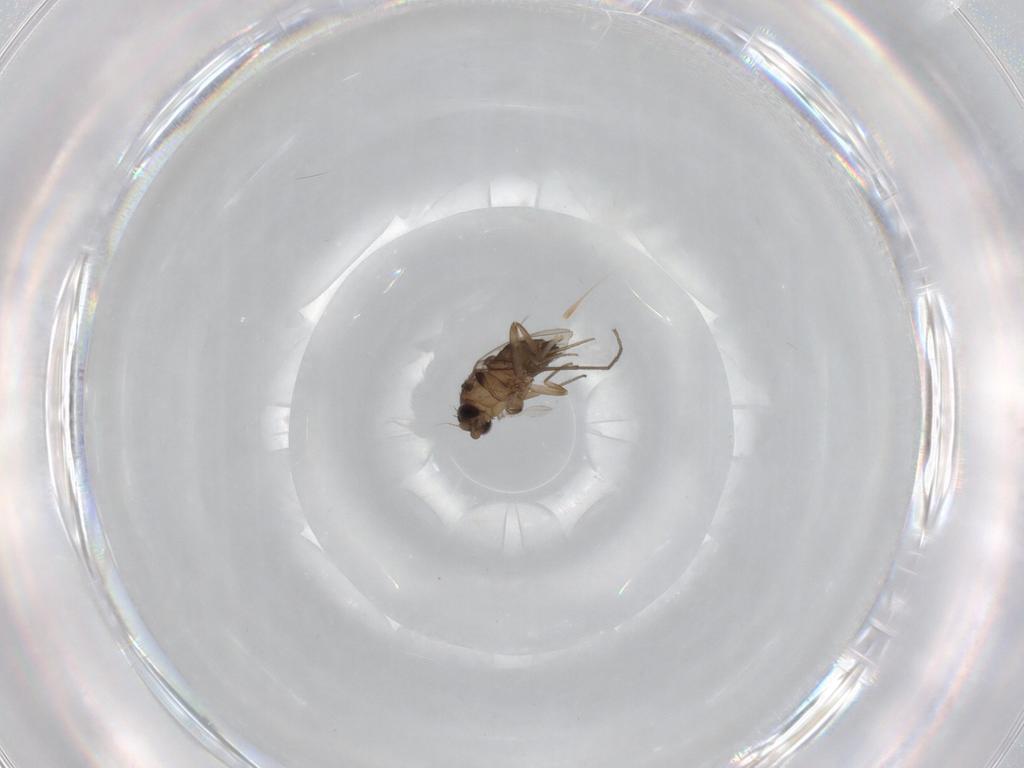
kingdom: Animalia
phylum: Arthropoda
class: Insecta
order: Diptera
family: Phoridae
